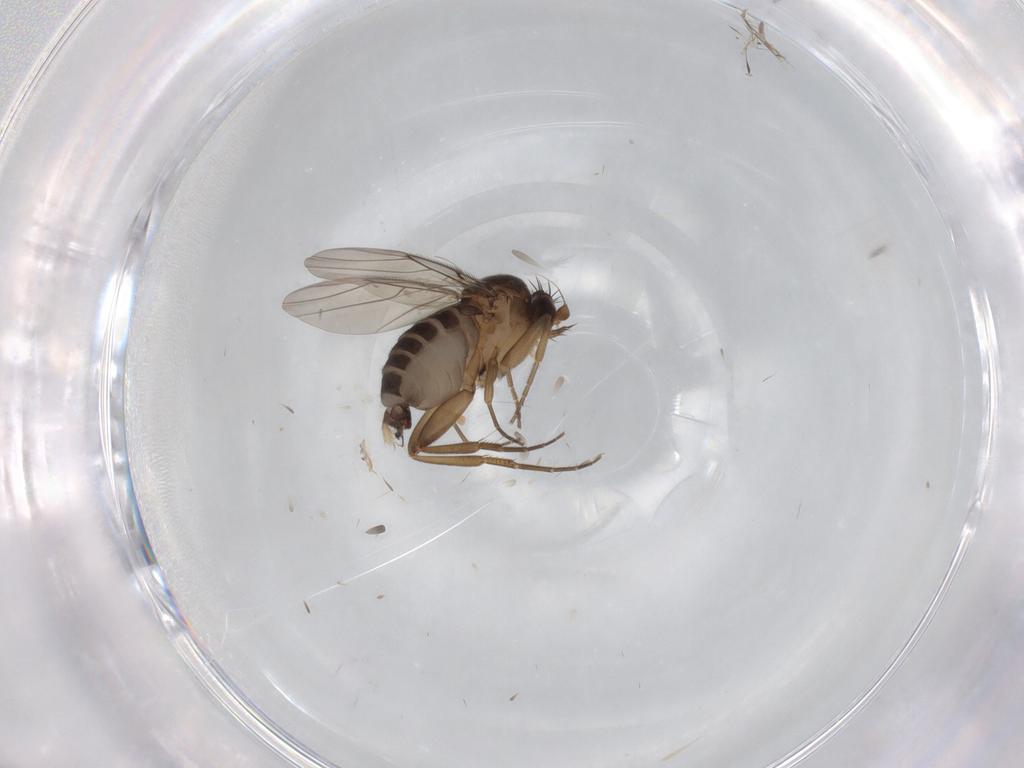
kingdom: Animalia
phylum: Arthropoda
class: Insecta
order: Diptera
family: Phoridae
